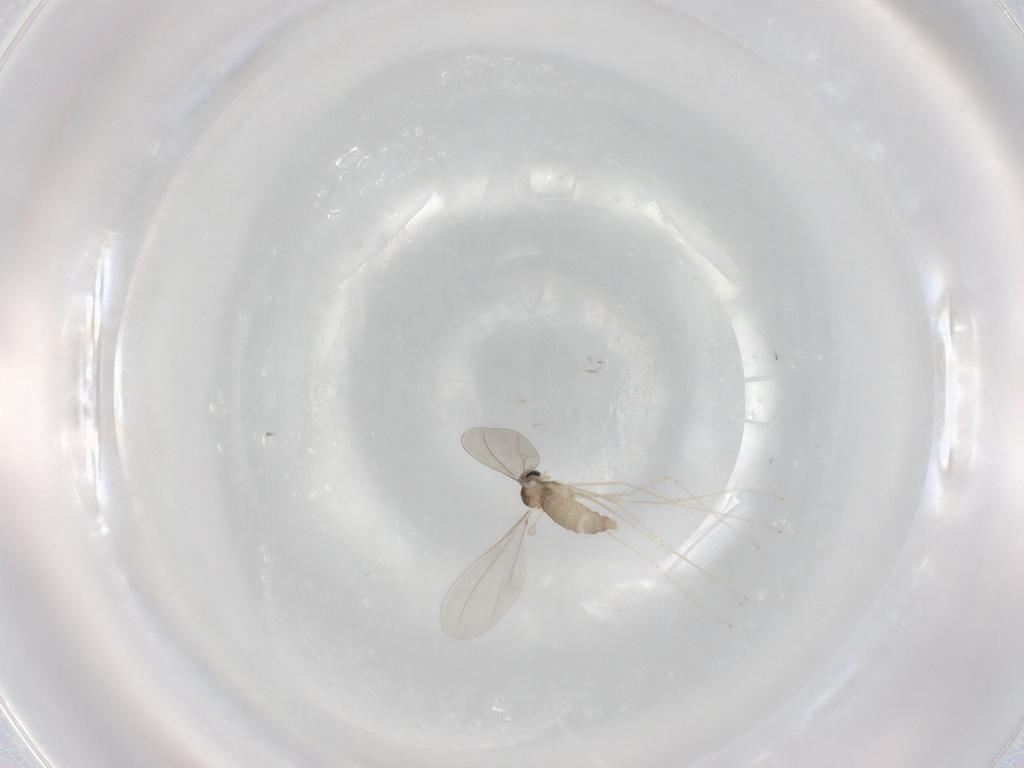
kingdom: Animalia
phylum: Arthropoda
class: Insecta
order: Diptera
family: Cecidomyiidae
